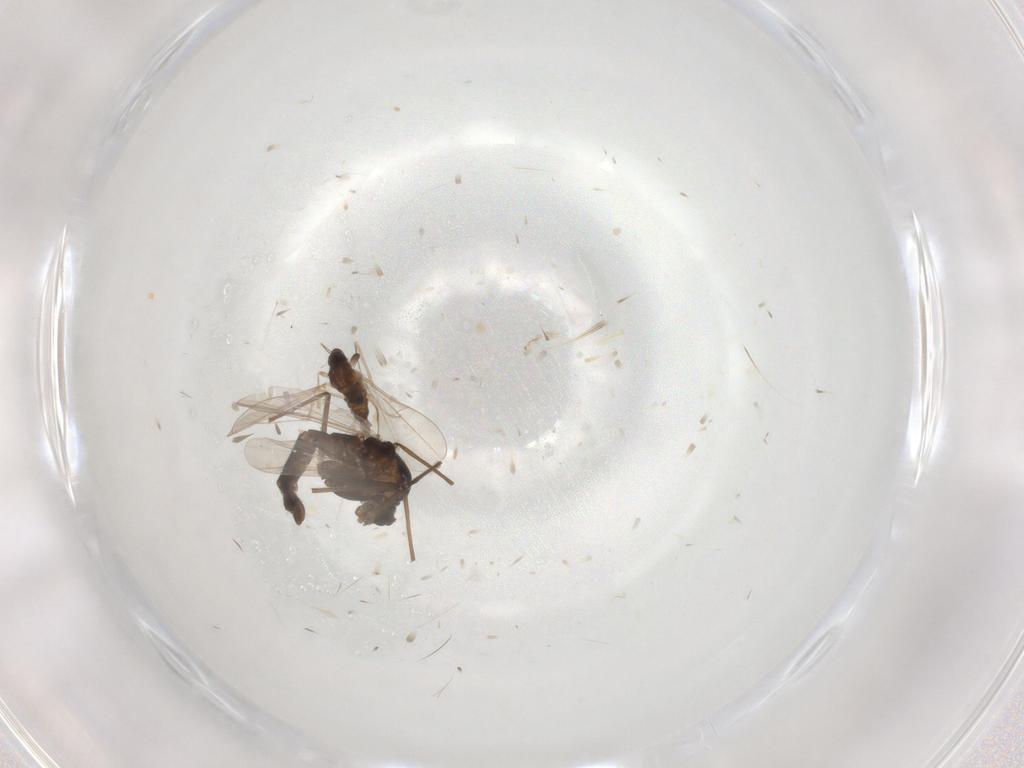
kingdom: Animalia
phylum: Arthropoda
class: Insecta
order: Diptera
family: Chironomidae
